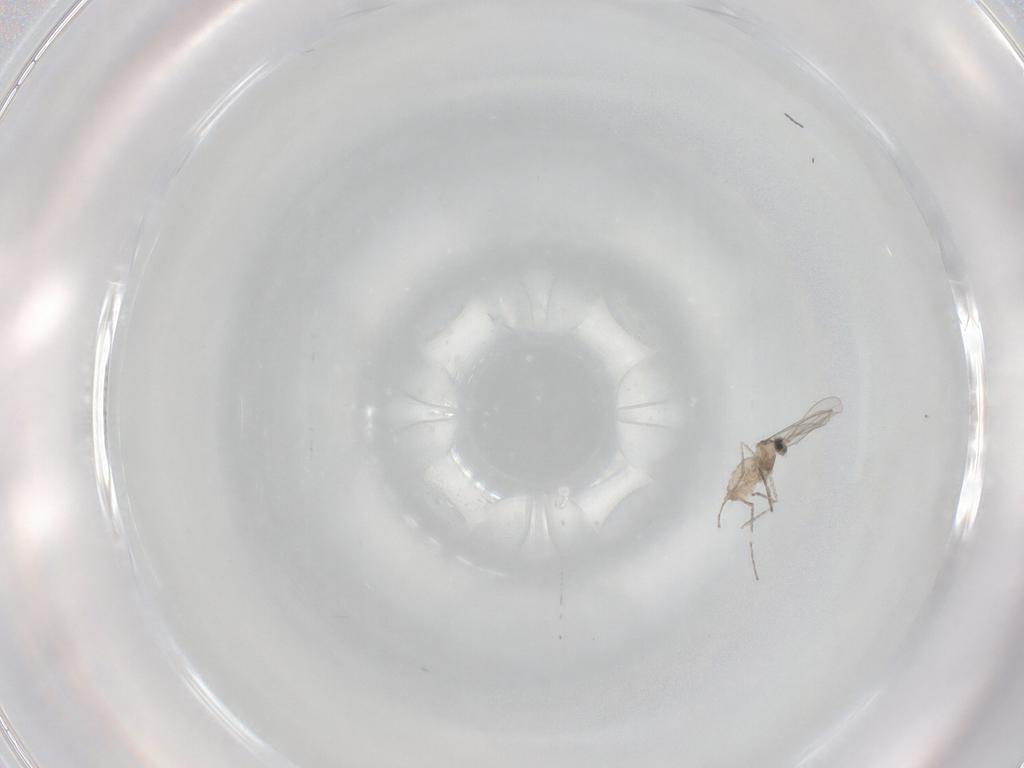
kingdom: Animalia
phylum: Arthropoda
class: Insecta
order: Diptera
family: Cecidomyiidae
